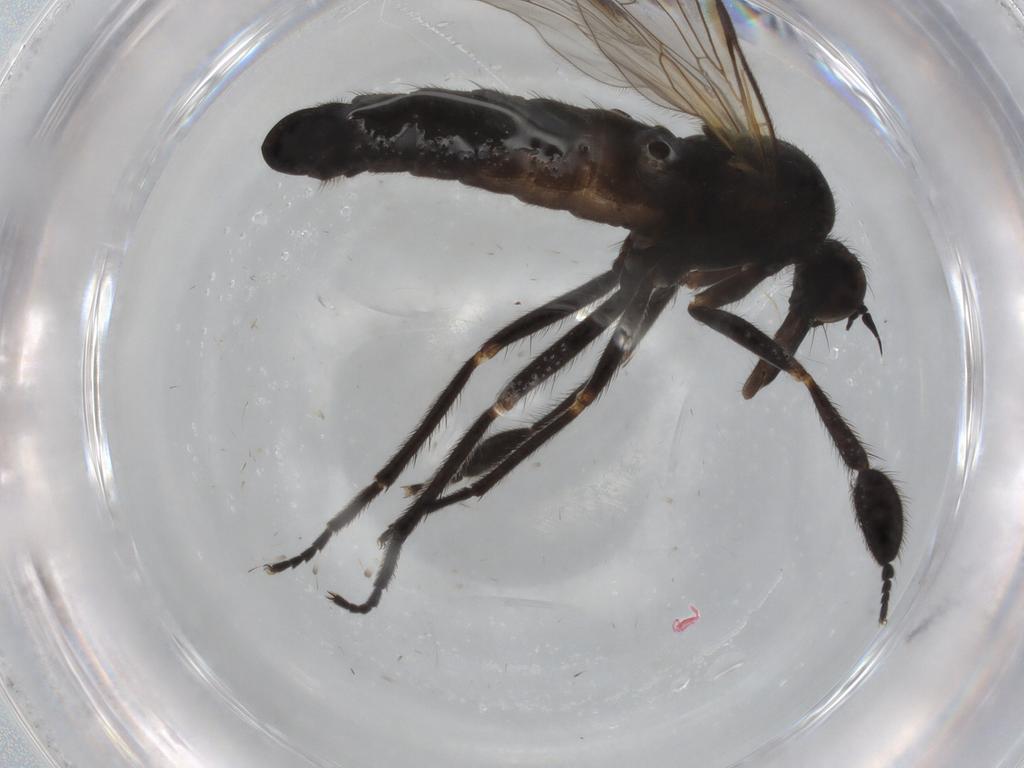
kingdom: Animalia
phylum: Arthropoda
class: Insecta
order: Diptera
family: Empididae
